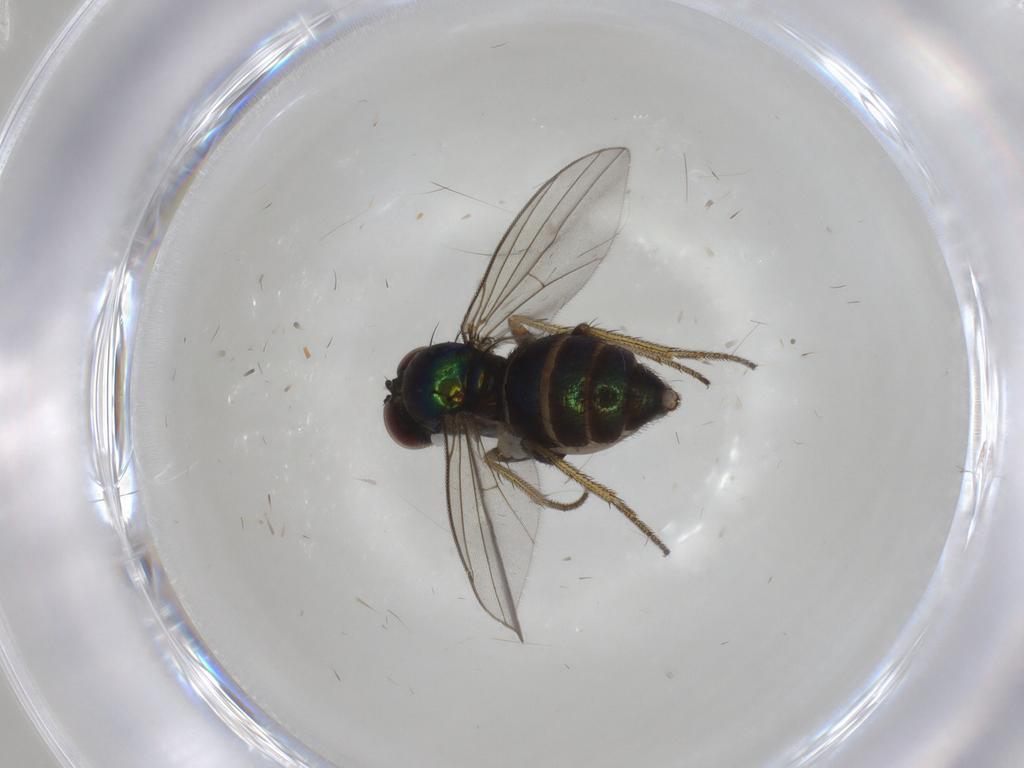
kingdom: Animalia
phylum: Arthropoda
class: Insecta
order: Diptera
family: Dolichopodidae
